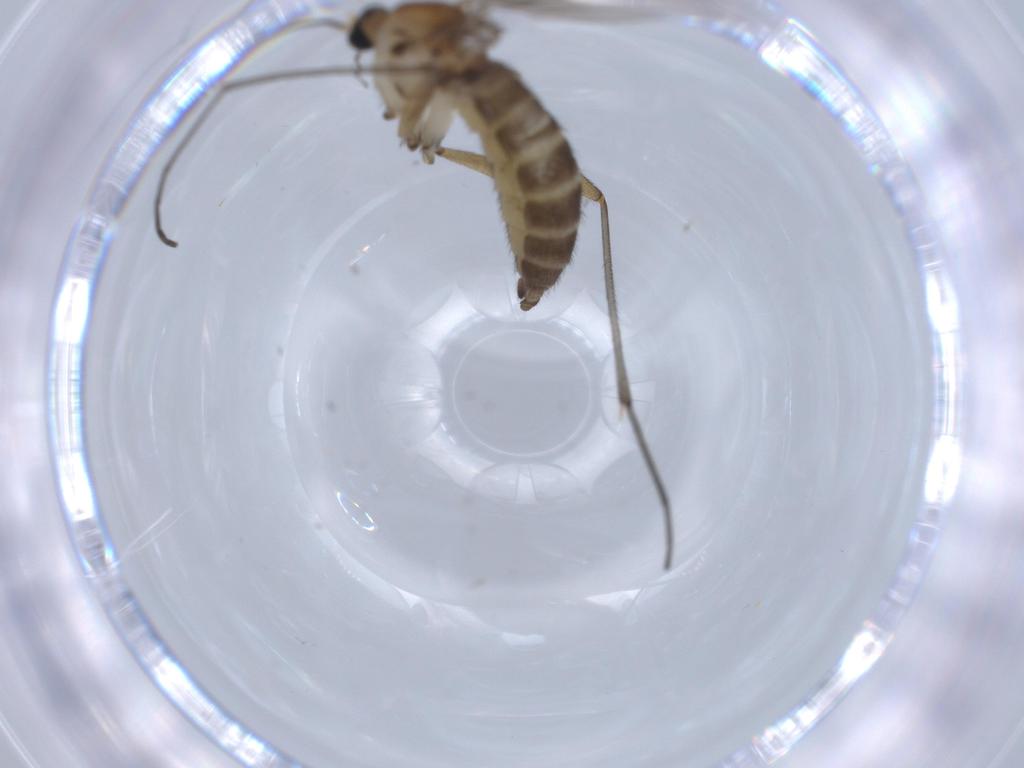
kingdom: Animalia
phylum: Arthropoda
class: Insecta
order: Diptera
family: Sciaridae
